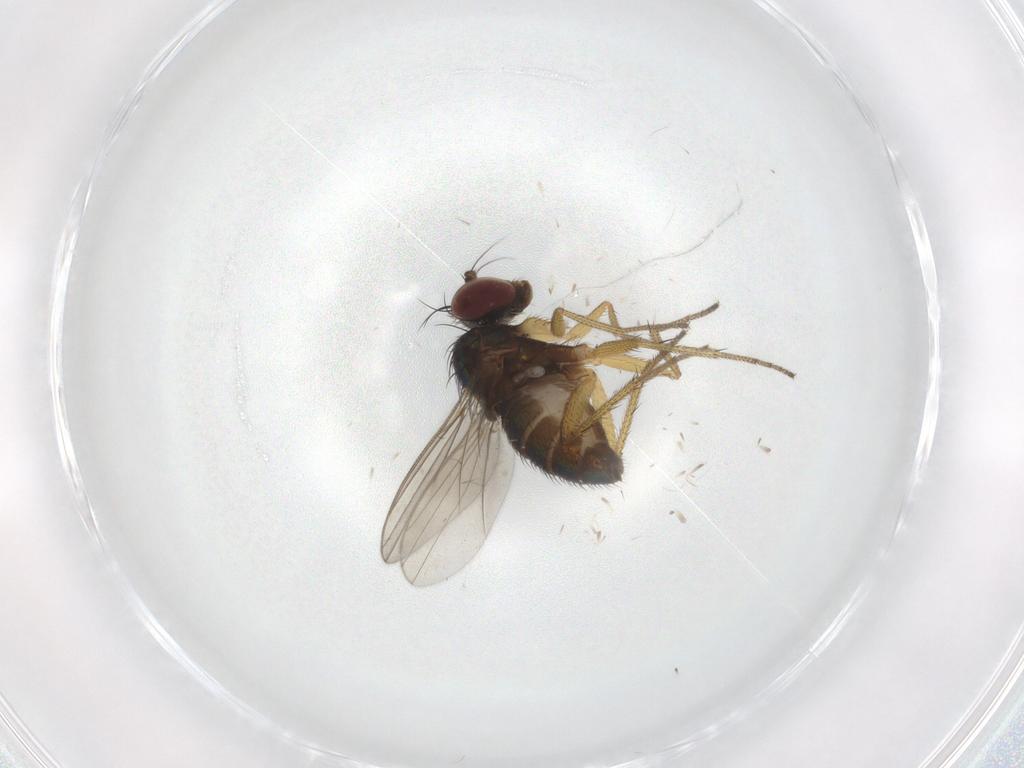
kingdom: Animalia
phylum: Arthropoda
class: Insecta
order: Diptera
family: Dolichopodidae
